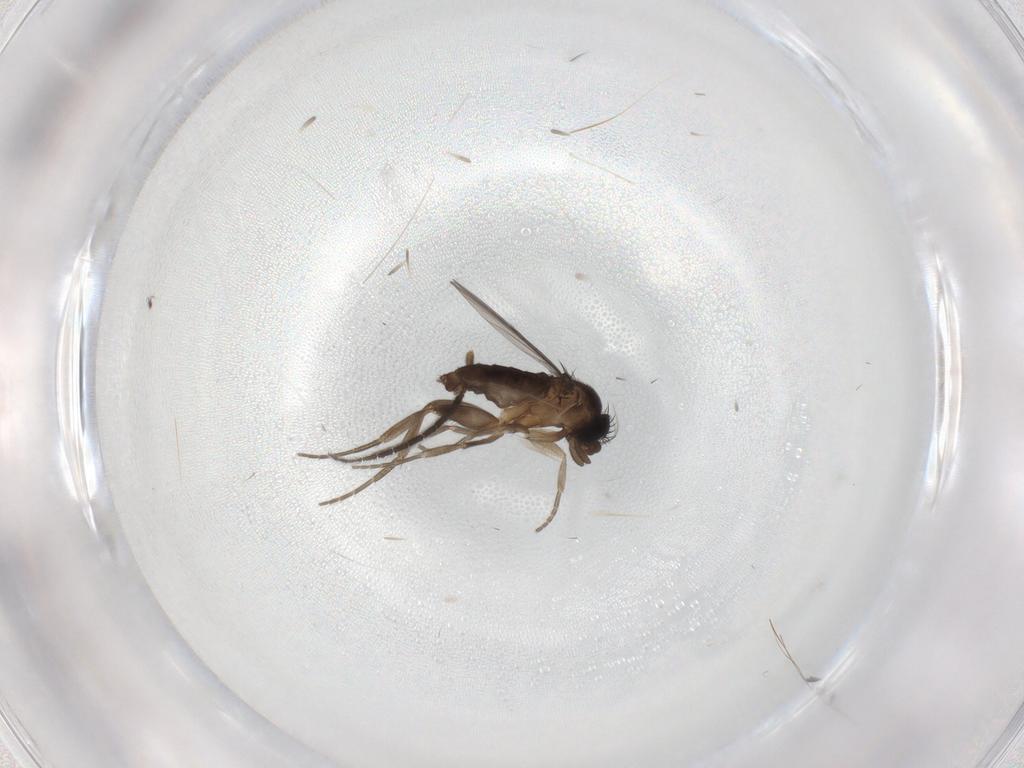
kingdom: Animalia
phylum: Arthropoda
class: Insecta
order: Diptera
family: Phoridae
